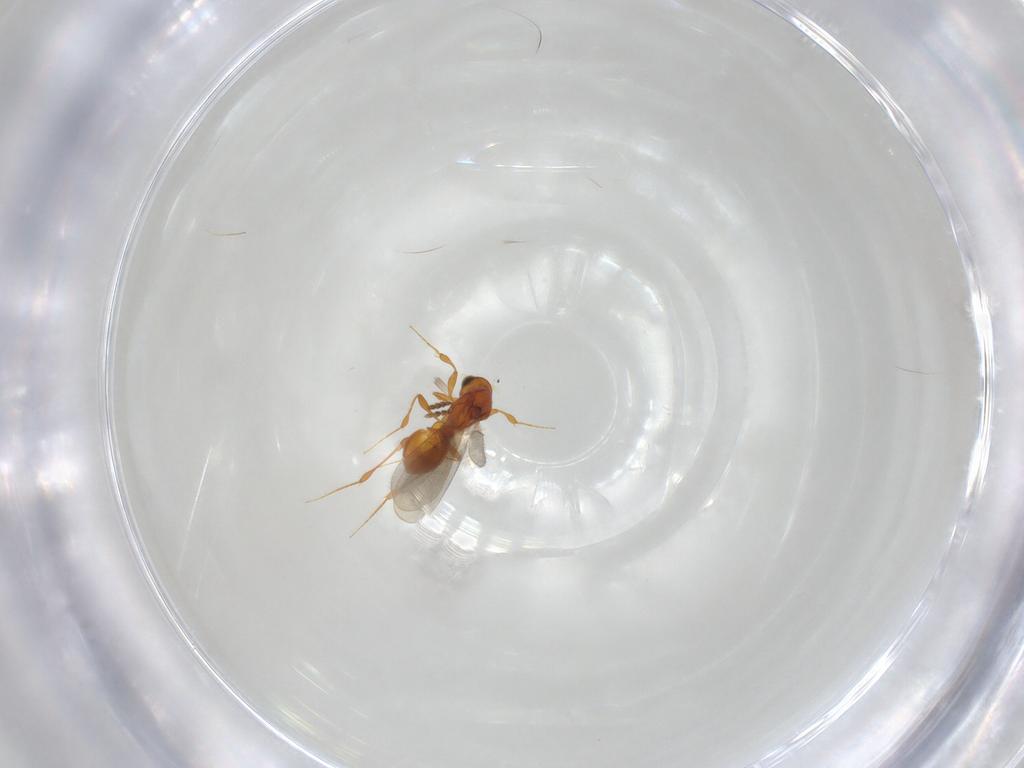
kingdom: Animalia
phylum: Arthropoda
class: Insecta
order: Hymenoptera
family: Platygastridae
